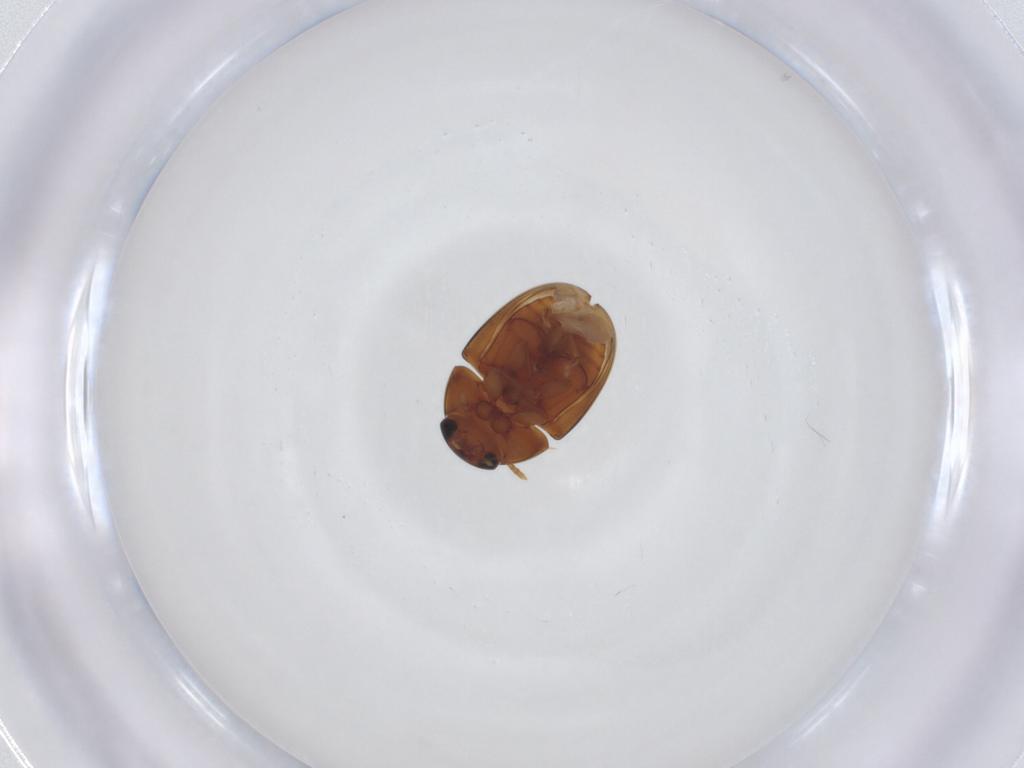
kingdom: Animalia
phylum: Arthropoda
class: Insecta
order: Coleoptera
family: Phalacridae
